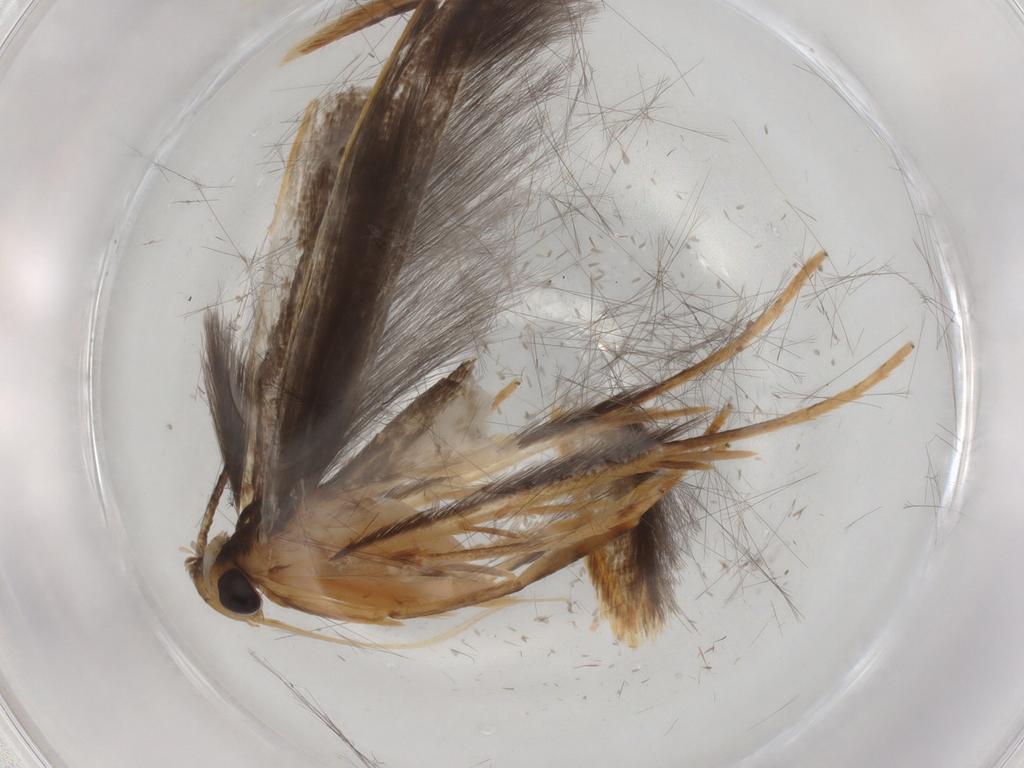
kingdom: Animalia
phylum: Arthropoda
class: Insecta
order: Lepidoptera
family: Pterolonchidae
